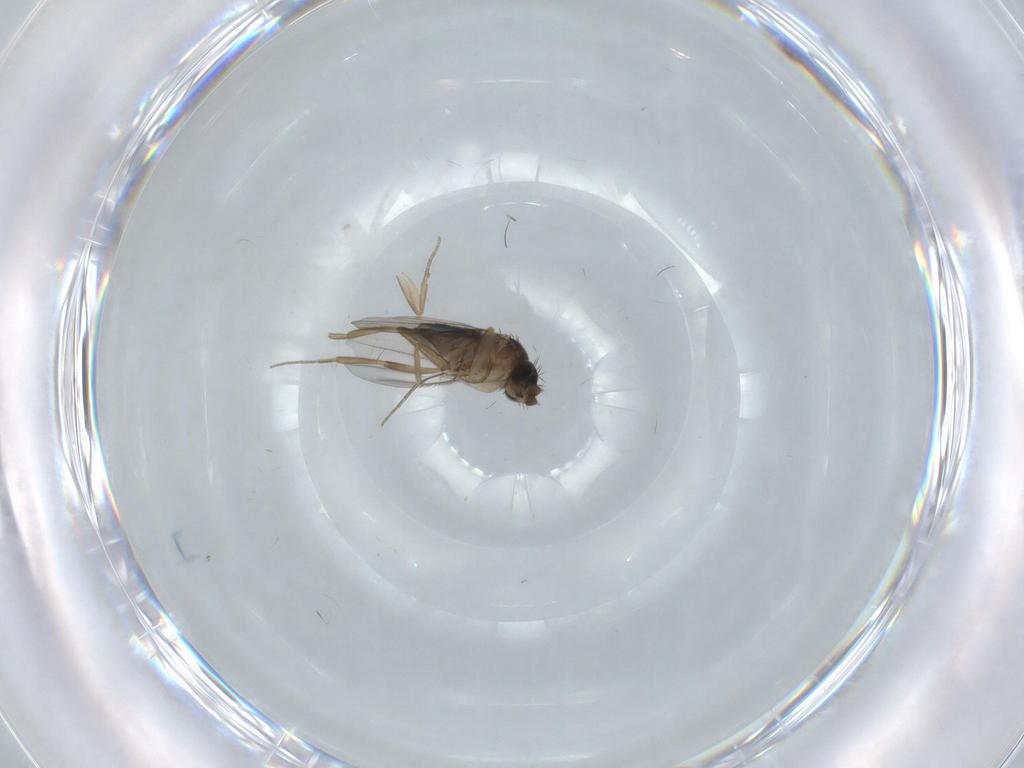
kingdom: Animalia
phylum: Arthropoda
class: Insecta
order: Diptera
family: Phoridae
